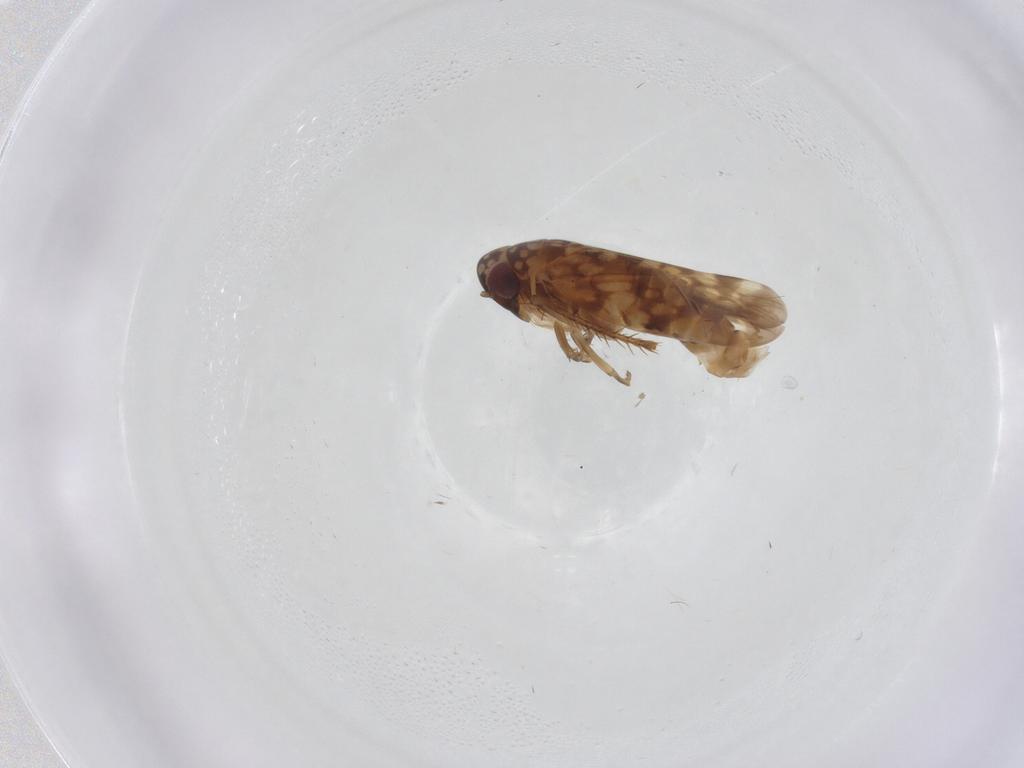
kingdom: Animalia
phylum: Arthropoda
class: Insecta
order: Hemiptera
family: Cicadellidae
